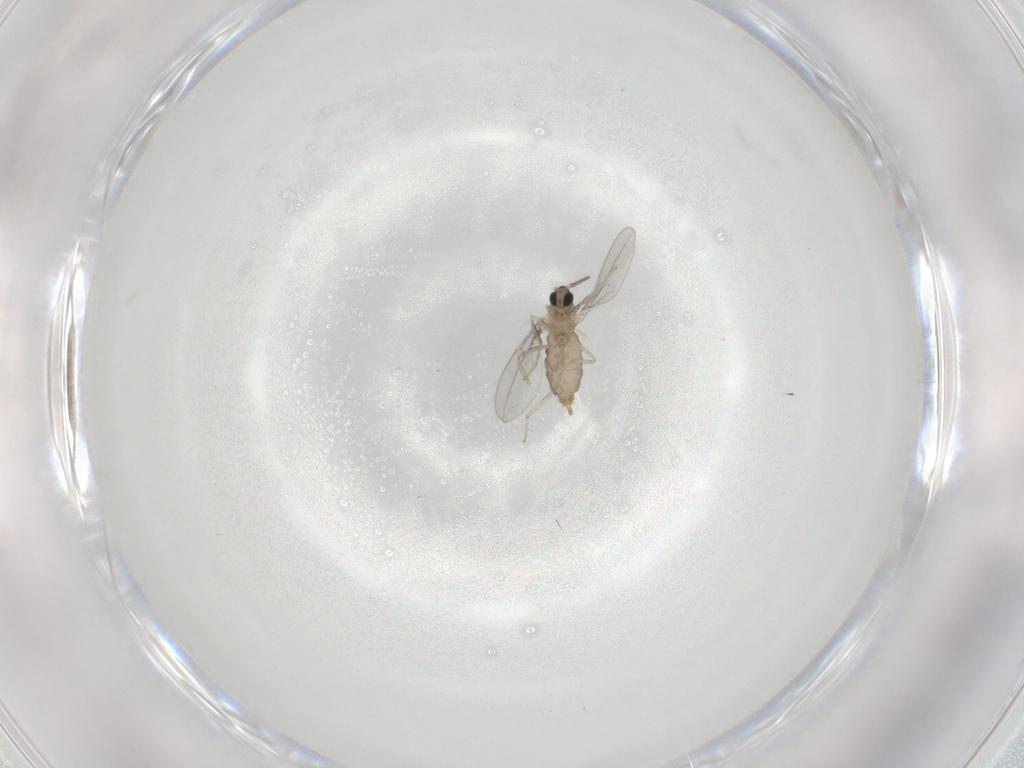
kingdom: Animalia
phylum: Arthropoda
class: Insecta
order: Diptera
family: Cecidomyiidae
